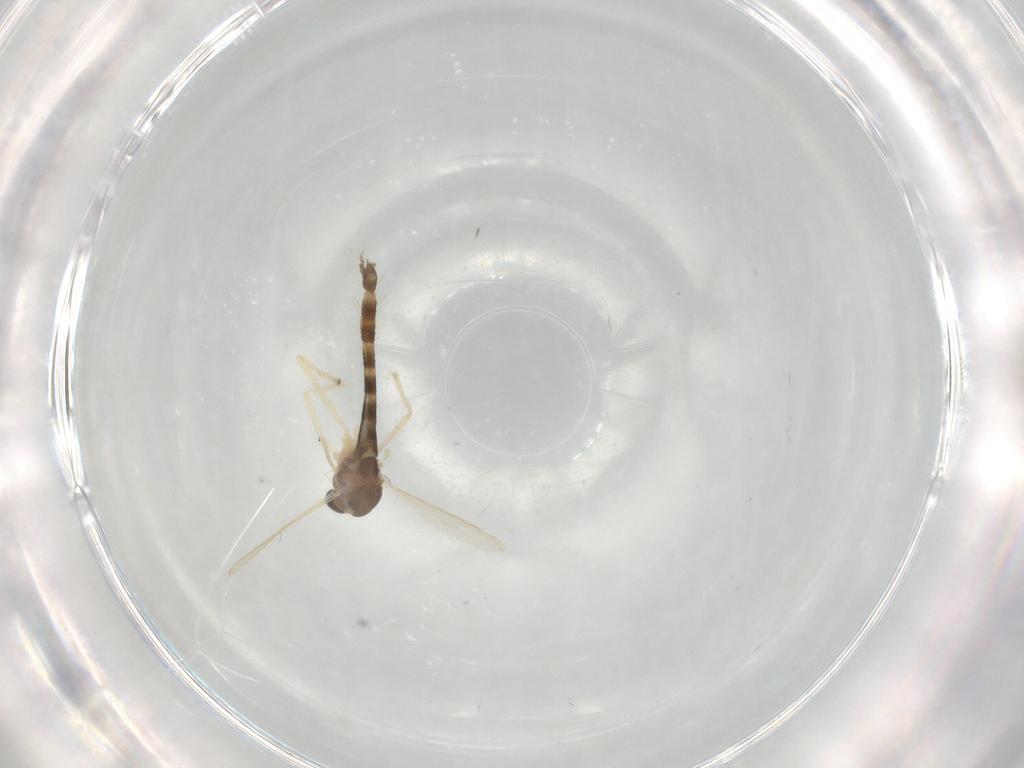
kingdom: Animalia
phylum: Arthropoda
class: Insecta
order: Diptera
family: Chironomidae
